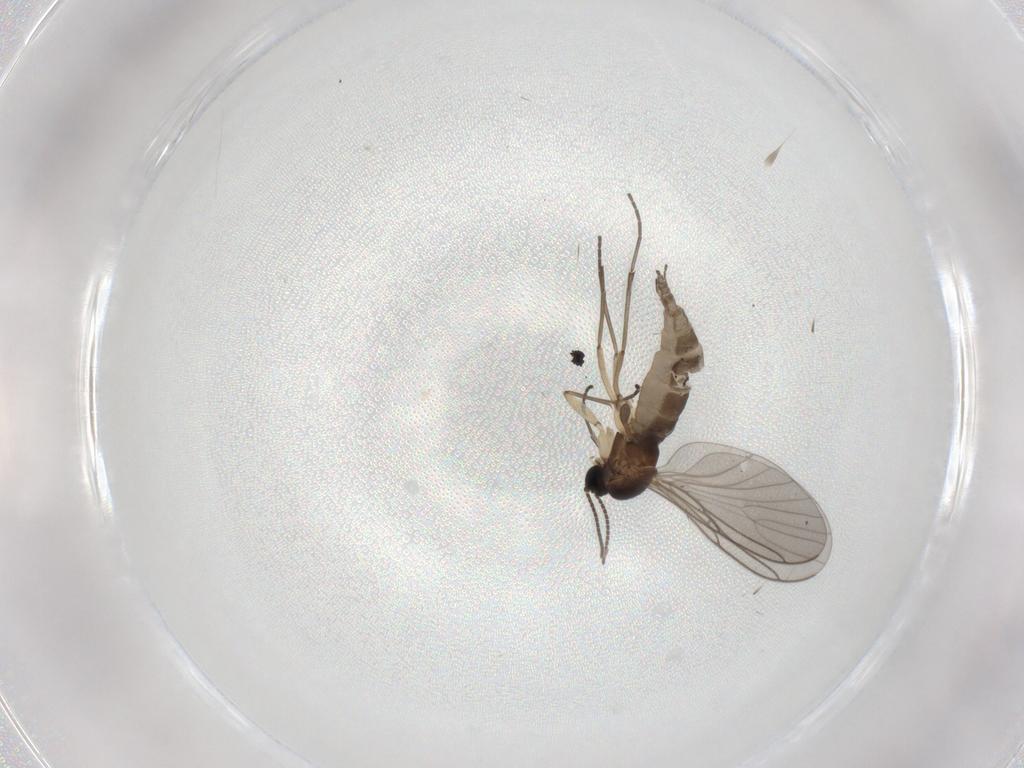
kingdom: Animalia
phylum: Arthropoda
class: Insecta
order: Diptera
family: Sciaridae
